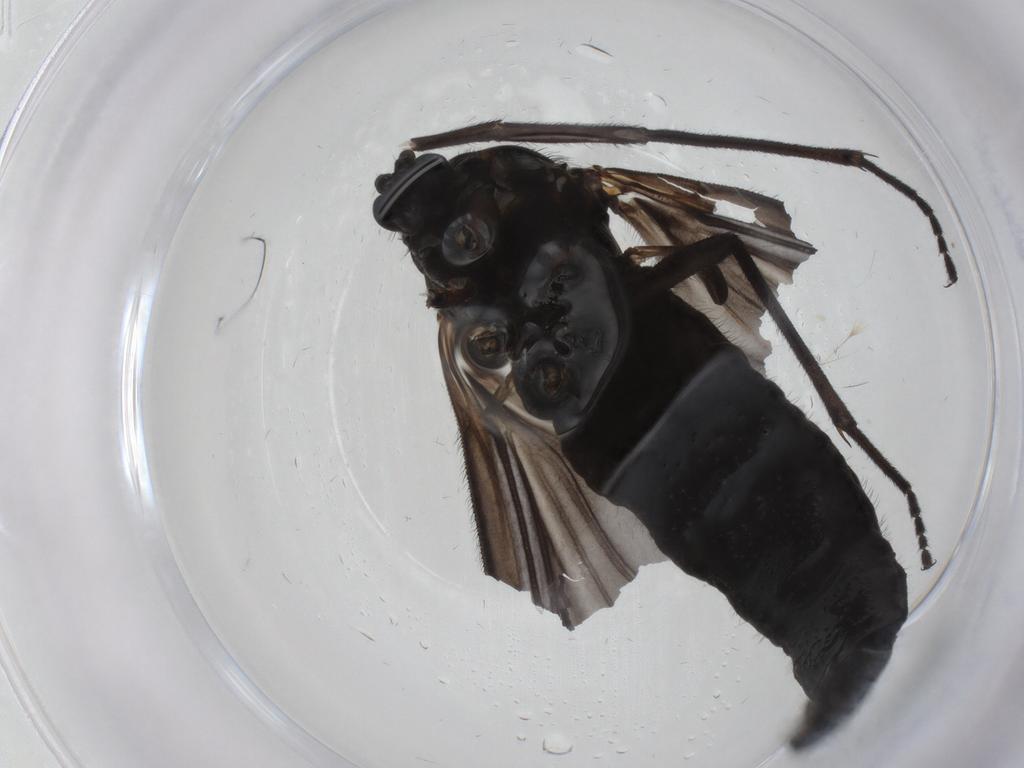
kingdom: Animalia
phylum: Arthropoda
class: Insecta
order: Diptera
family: Sciaridae
